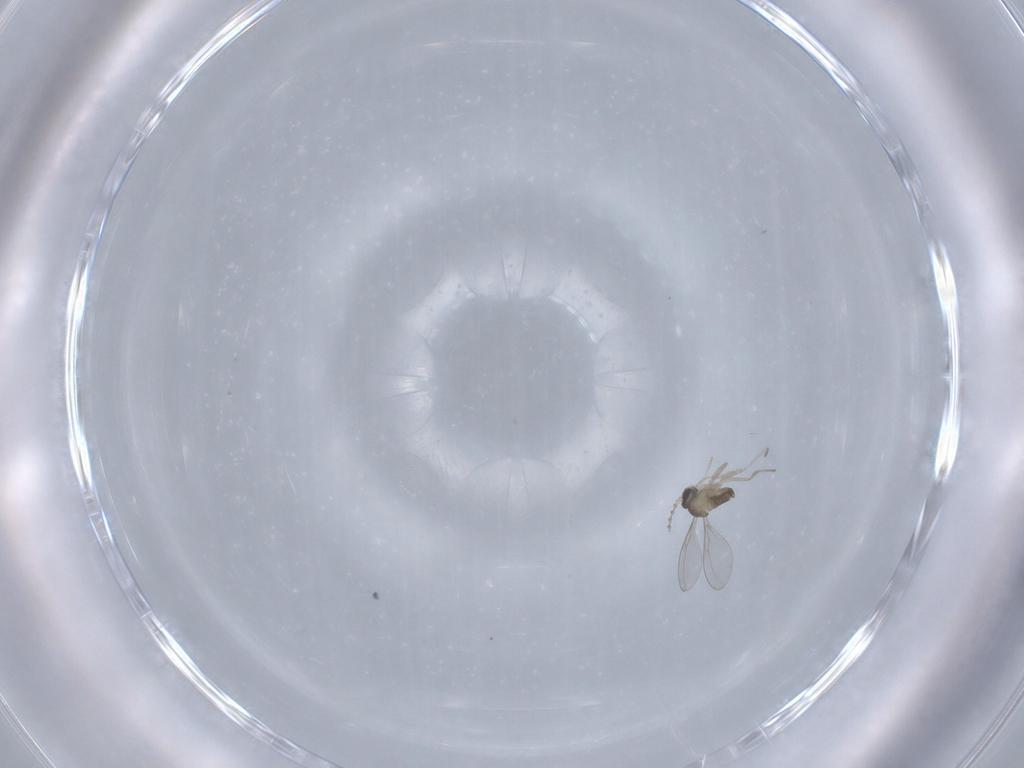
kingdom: Animalia
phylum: Arthropoda
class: Insecta
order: Diptera
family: Cecidomyiidae
